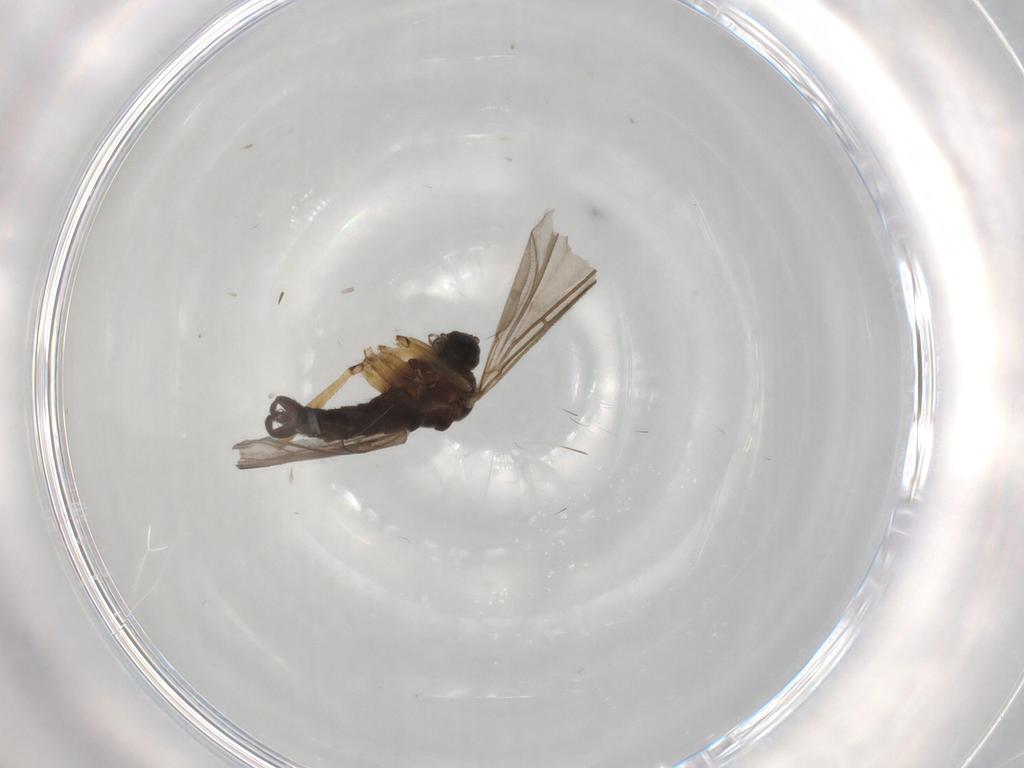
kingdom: Animalia
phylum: Arthropoda
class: Insecta
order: Diptera
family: Sciaridae
